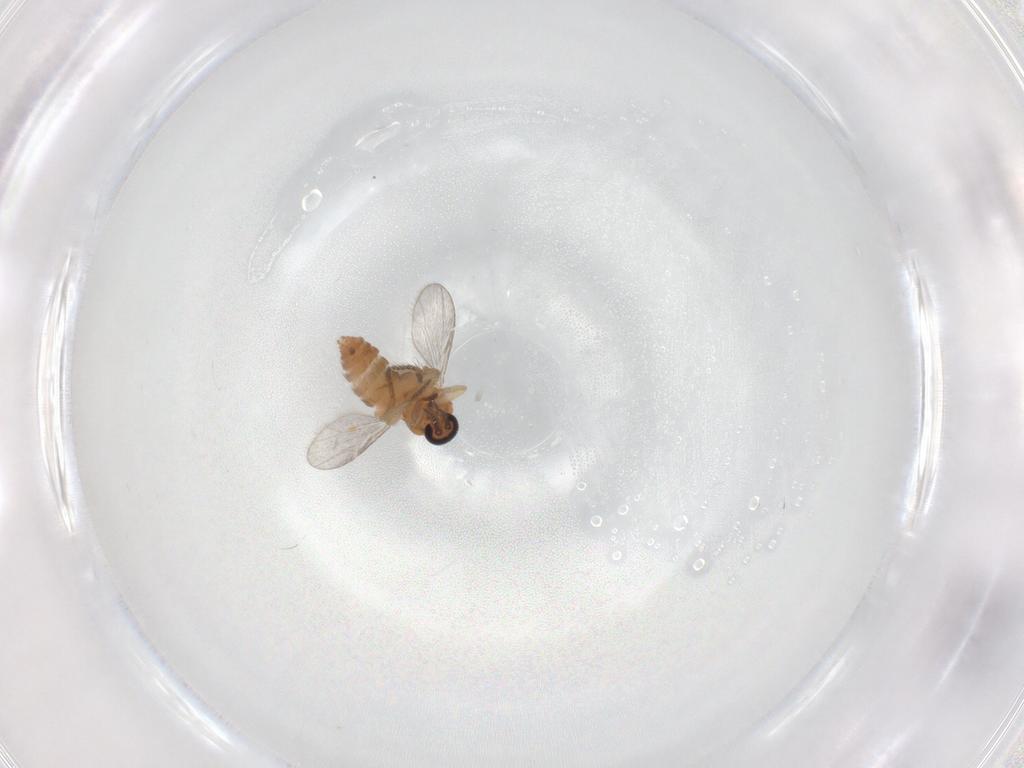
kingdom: Animalia
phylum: Arthropoda
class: Insecta
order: Diptera
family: Ceratopogonidae
